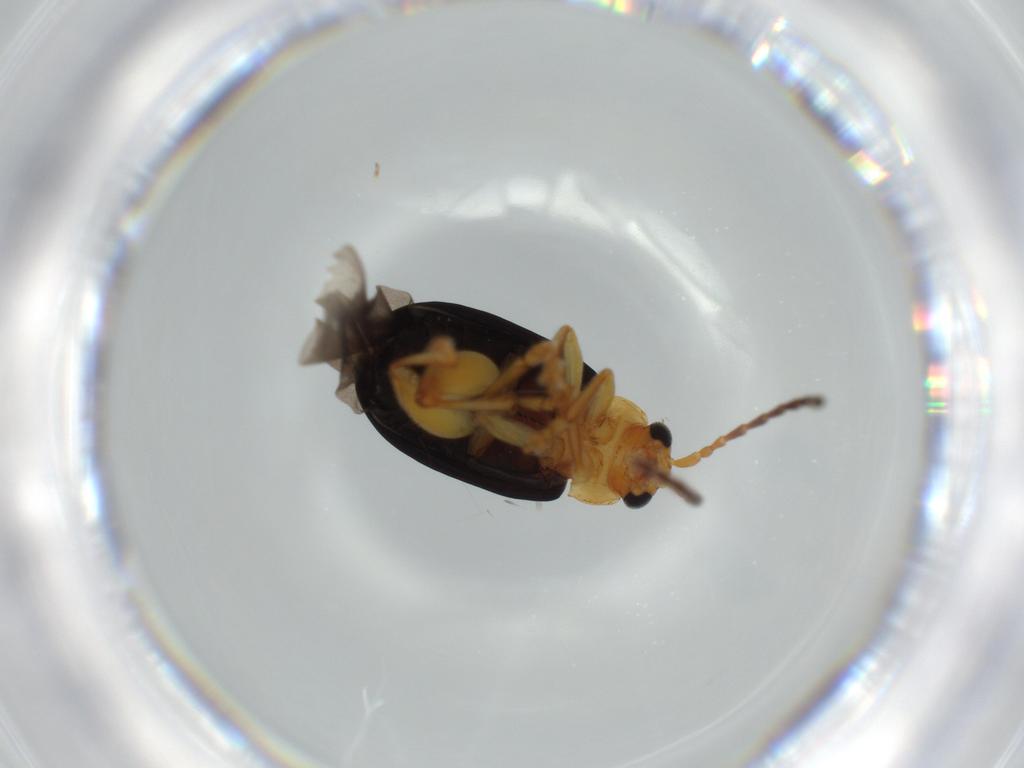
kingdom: Animalia
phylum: Arthropoda
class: Insecta
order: Coleoptera
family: Chrysomelidae
